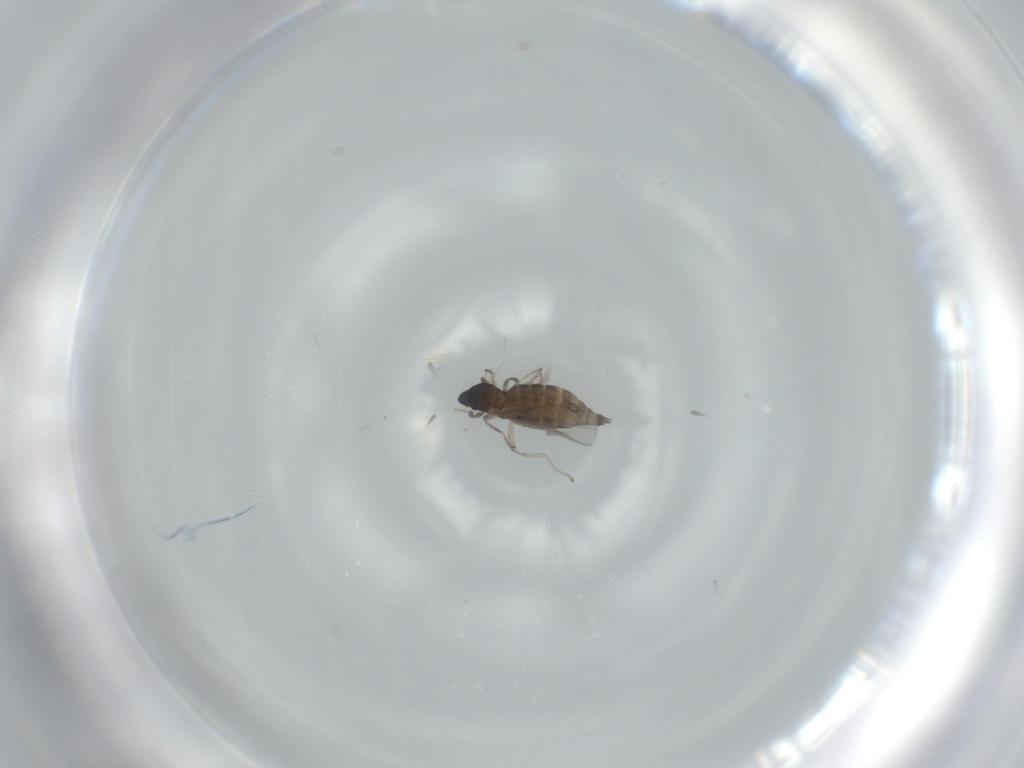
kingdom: Animalia
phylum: Arthropoda
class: Insecta
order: Diptera
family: Cecidomyiidae
